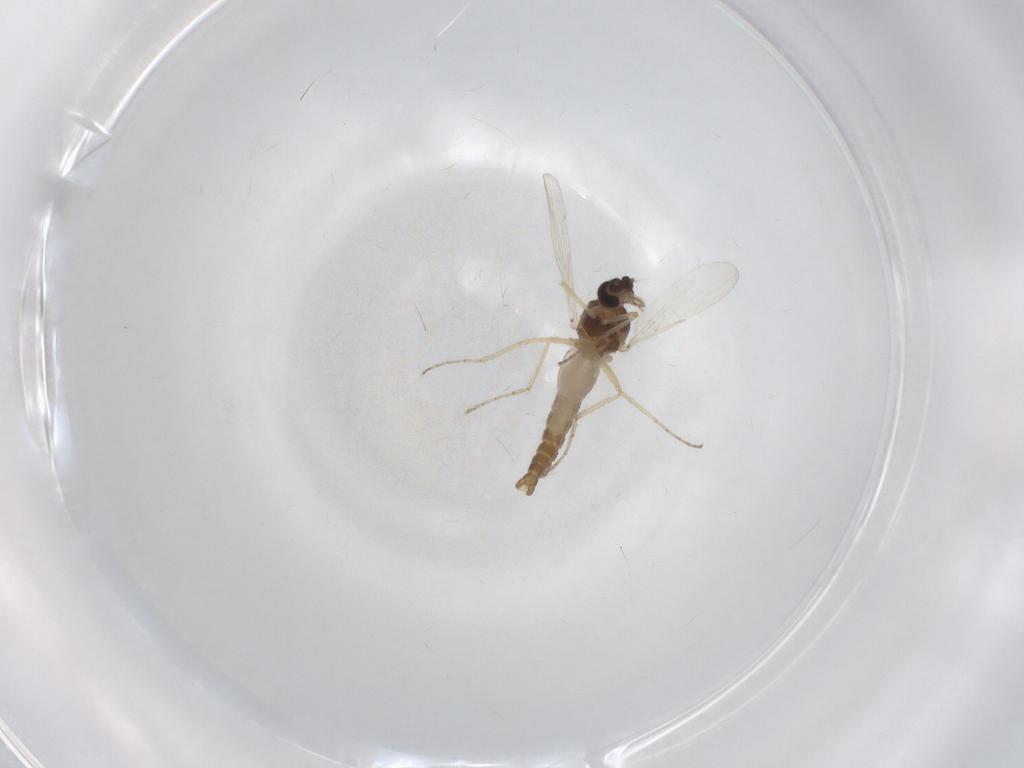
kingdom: Animalia
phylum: Arthropoda
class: Insecta
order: Diptera
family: Ceratopogonidae
